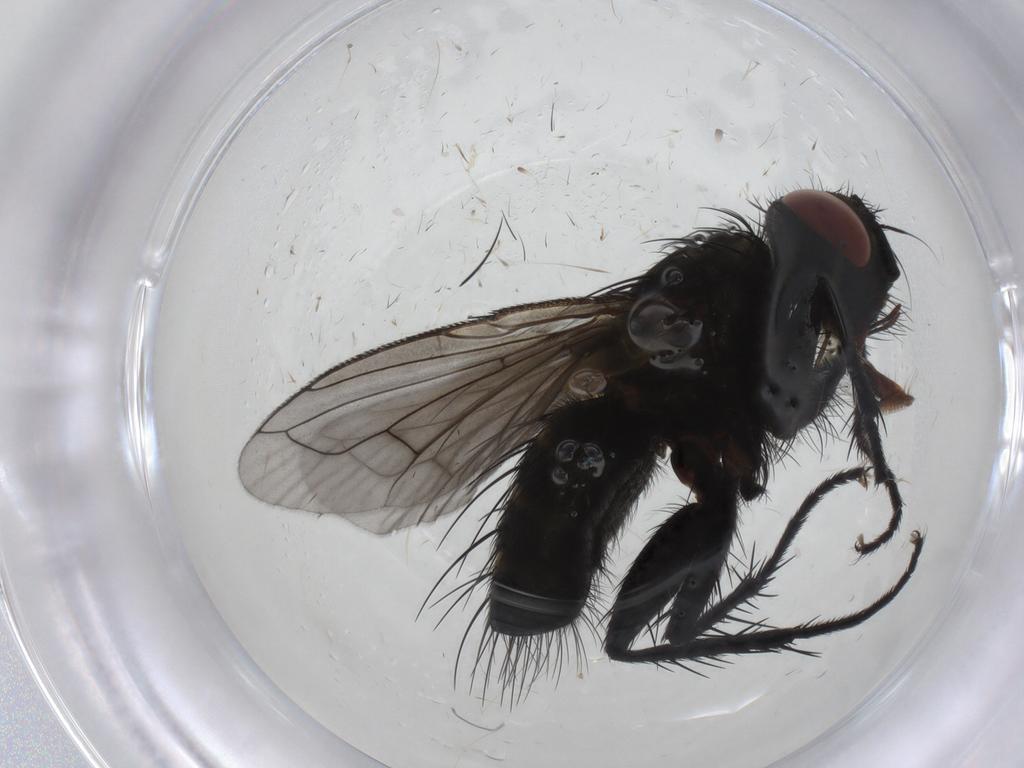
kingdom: Animalia
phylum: Arthropoda
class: Insecta
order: Diptera
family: Tachinidae
